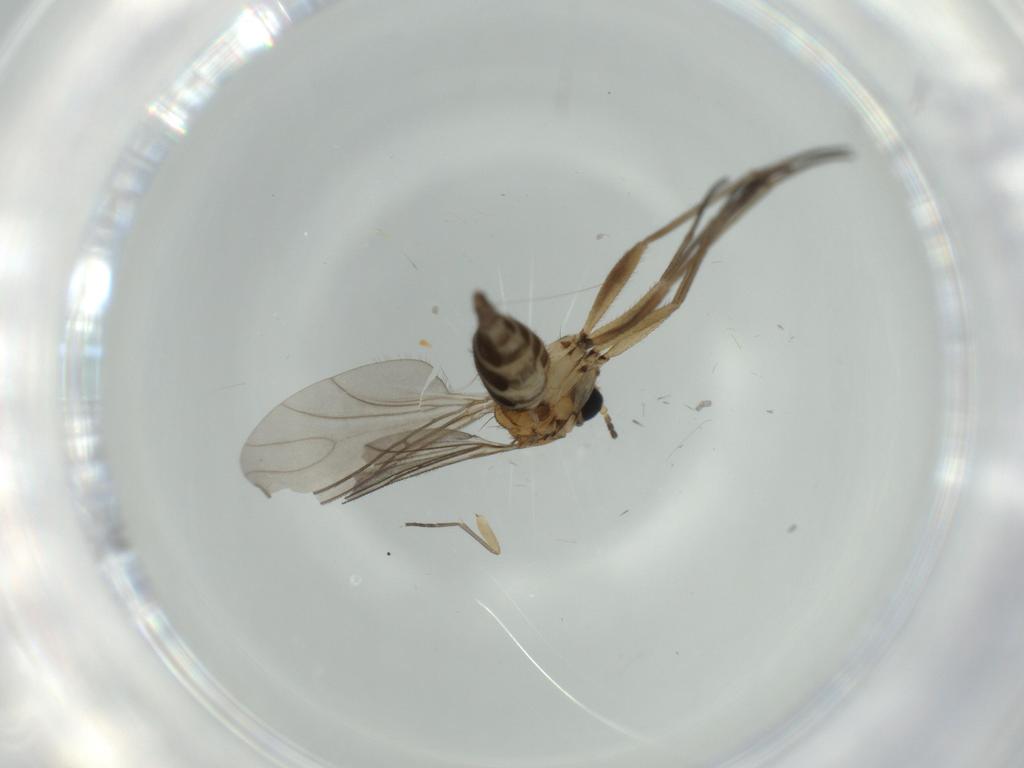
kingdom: Animalia
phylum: Arthropoda
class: Insecta
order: Diptera
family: Sciaridae
